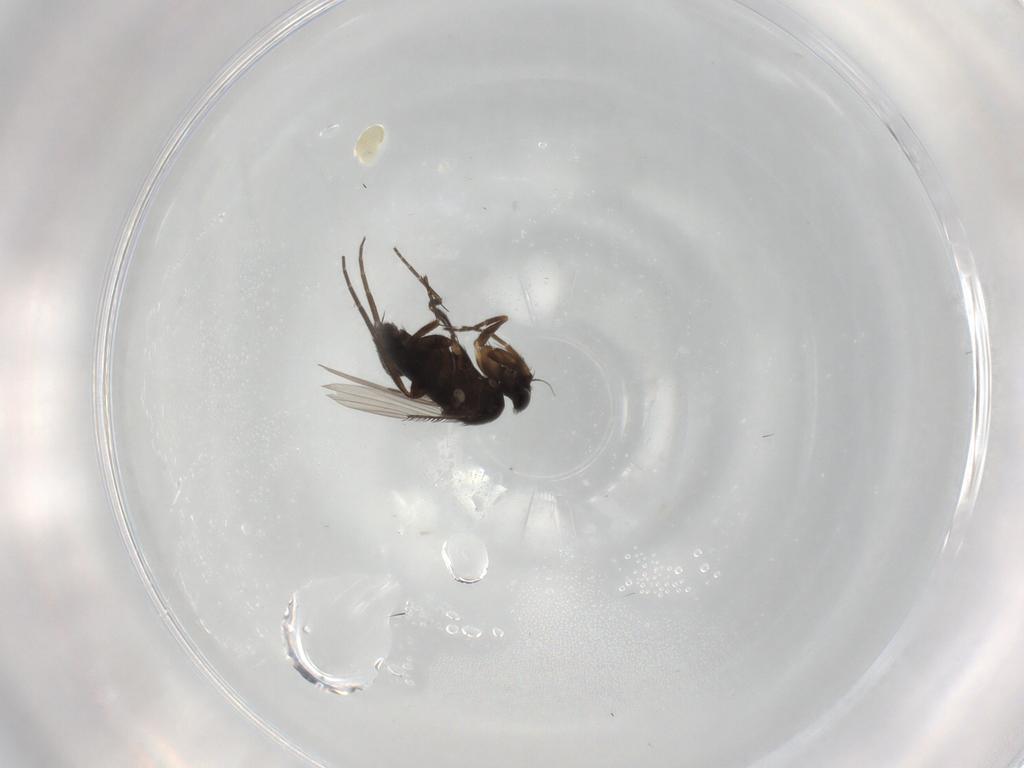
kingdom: Animalia
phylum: Arthropoda
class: Insecta
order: Diptera
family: Phoridae
